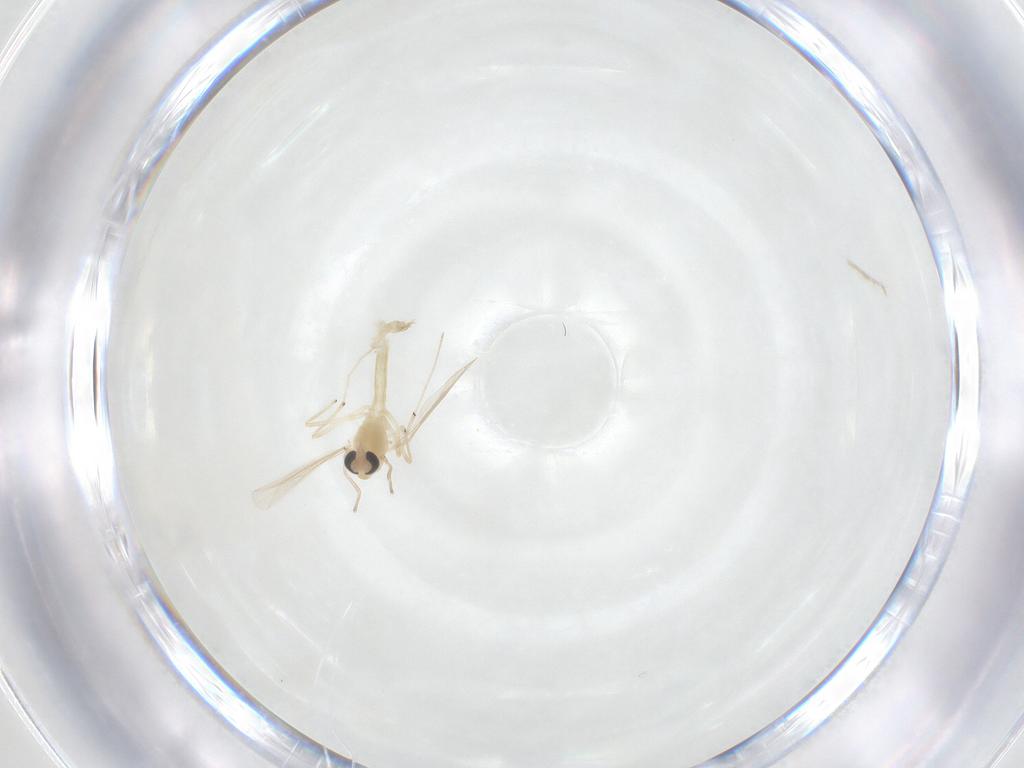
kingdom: Animalia
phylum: Arthropoda
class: Insecta
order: Diptera
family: Chironomidae
